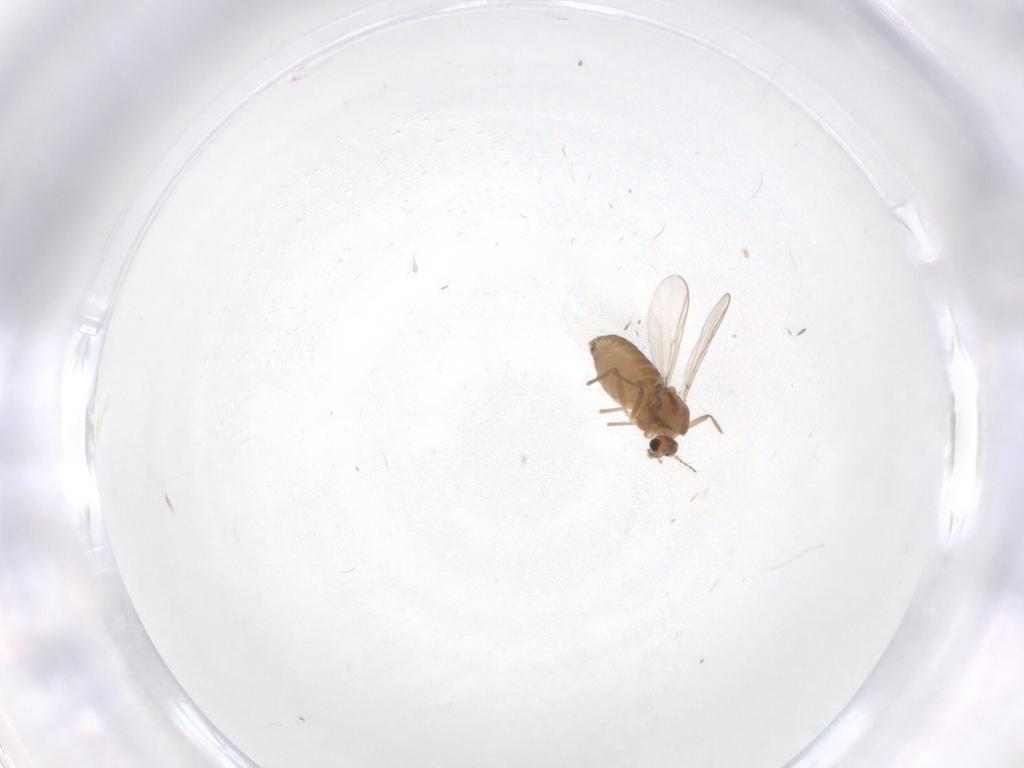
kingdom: Animalia
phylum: Arthropoda
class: Insecta
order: Diptera
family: Chironomidae
